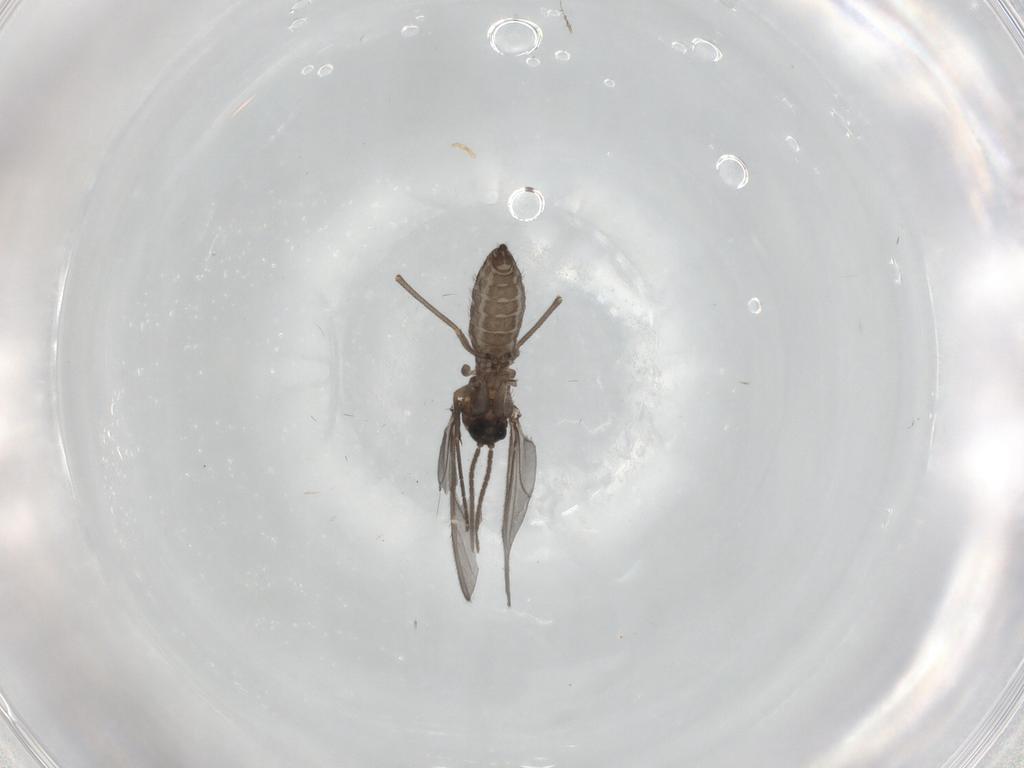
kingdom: Animalia
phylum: Arthropoda
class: Insecta
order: Diptera
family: Sciaridae
